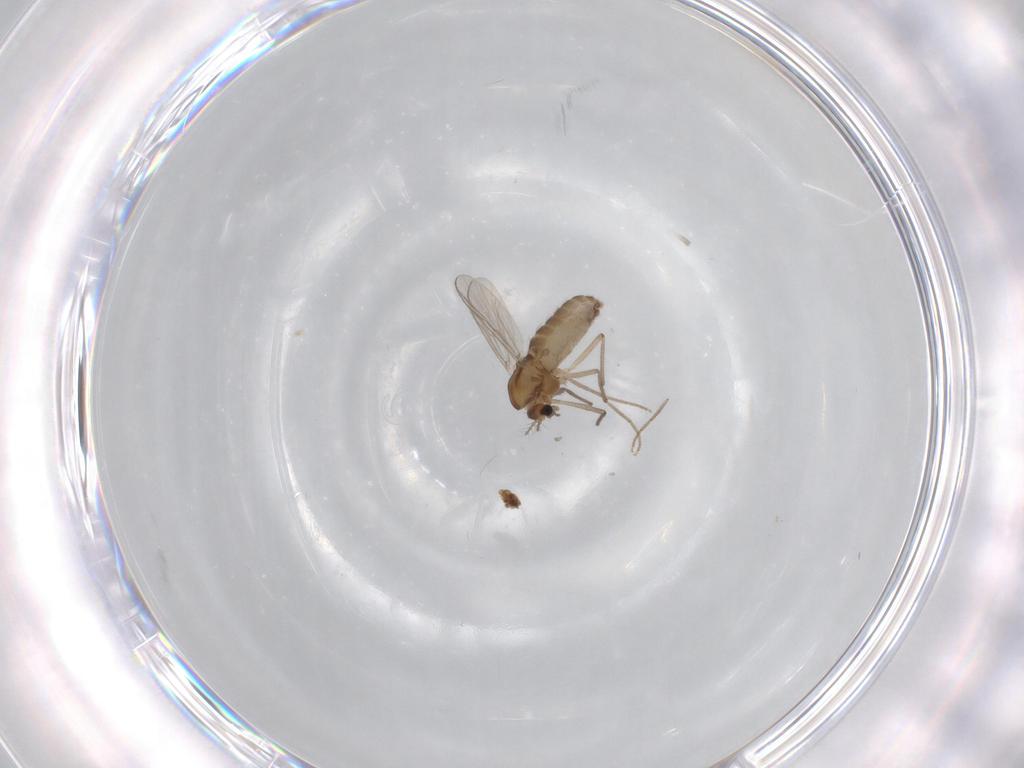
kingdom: Animalia
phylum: Arthropoda
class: Insecta
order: Diptera
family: Chironomidae
